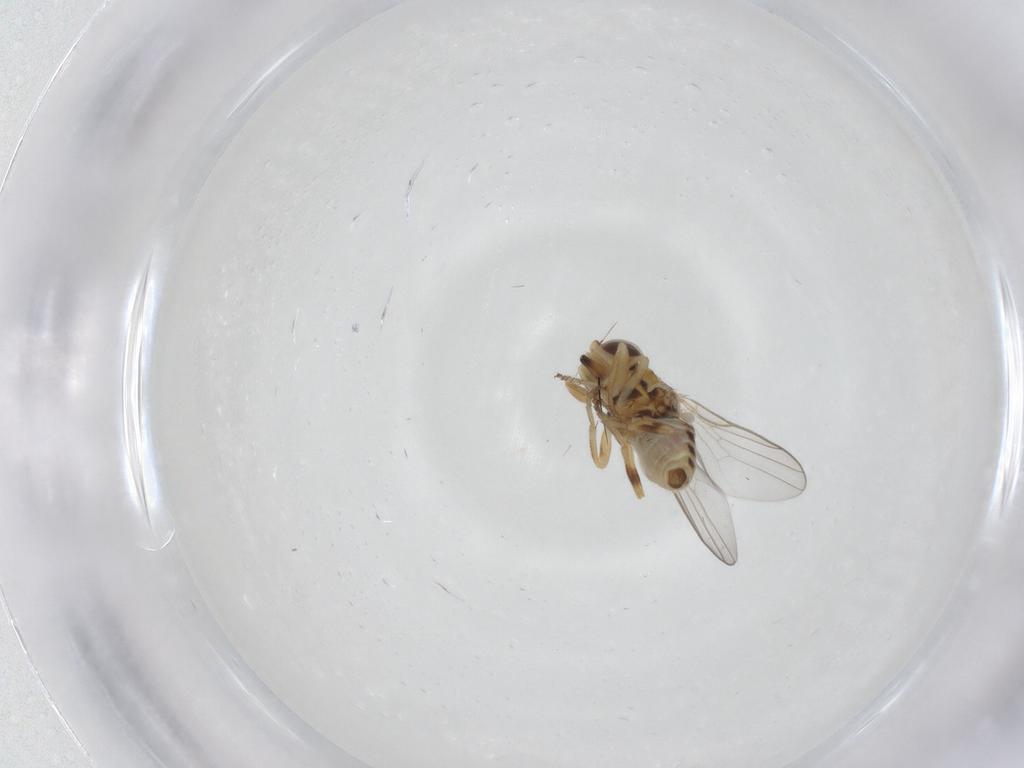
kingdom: Animalia
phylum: Arthropoda
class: Insecta
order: Diptera
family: Chloropidae
